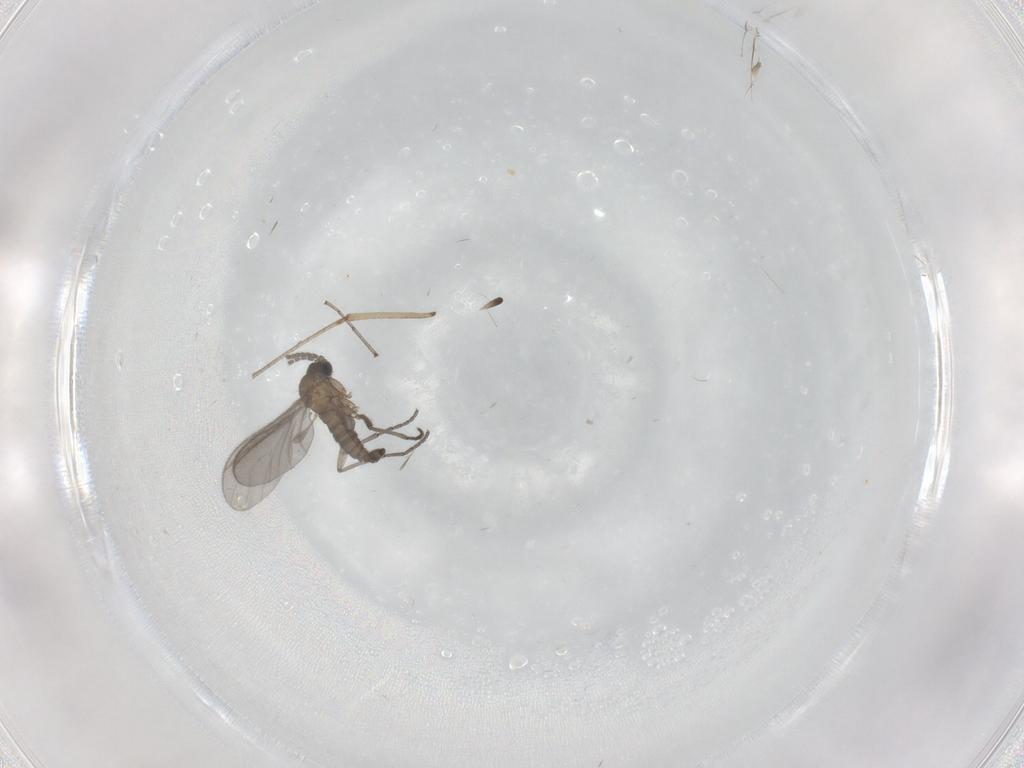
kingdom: Animalia
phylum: Arthropoda
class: Insecta
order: Diptera
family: Sciaridae
